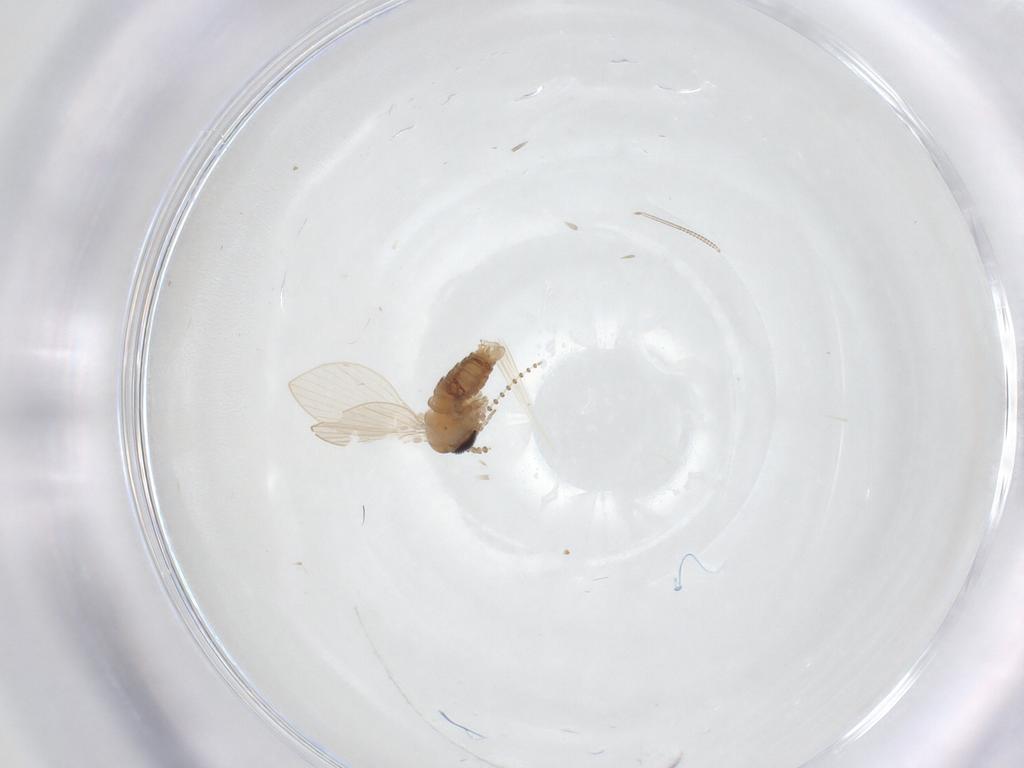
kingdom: Animalia
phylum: Arthropoda
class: Insecta
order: Diptera
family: Psychodidae
